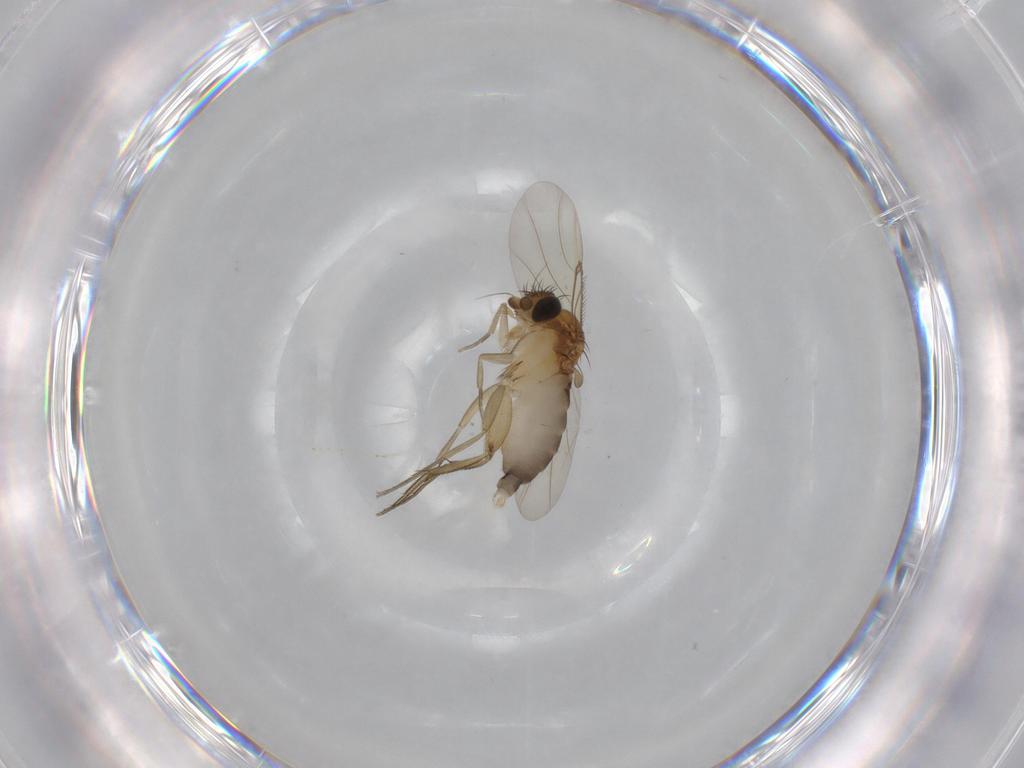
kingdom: Animalia
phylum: Arthropoda
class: Insecta
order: Diptera
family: Phoridae
